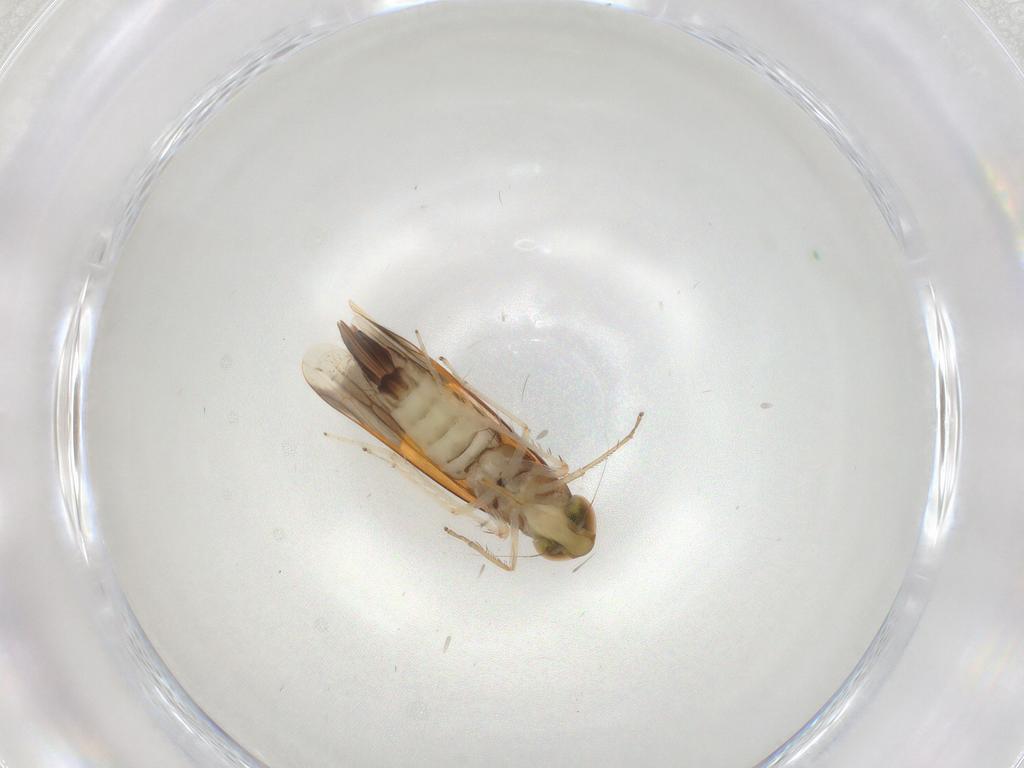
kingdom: Animalia
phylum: Arthropoda
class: Insecta
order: Hemiptera
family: Cicadellidae
